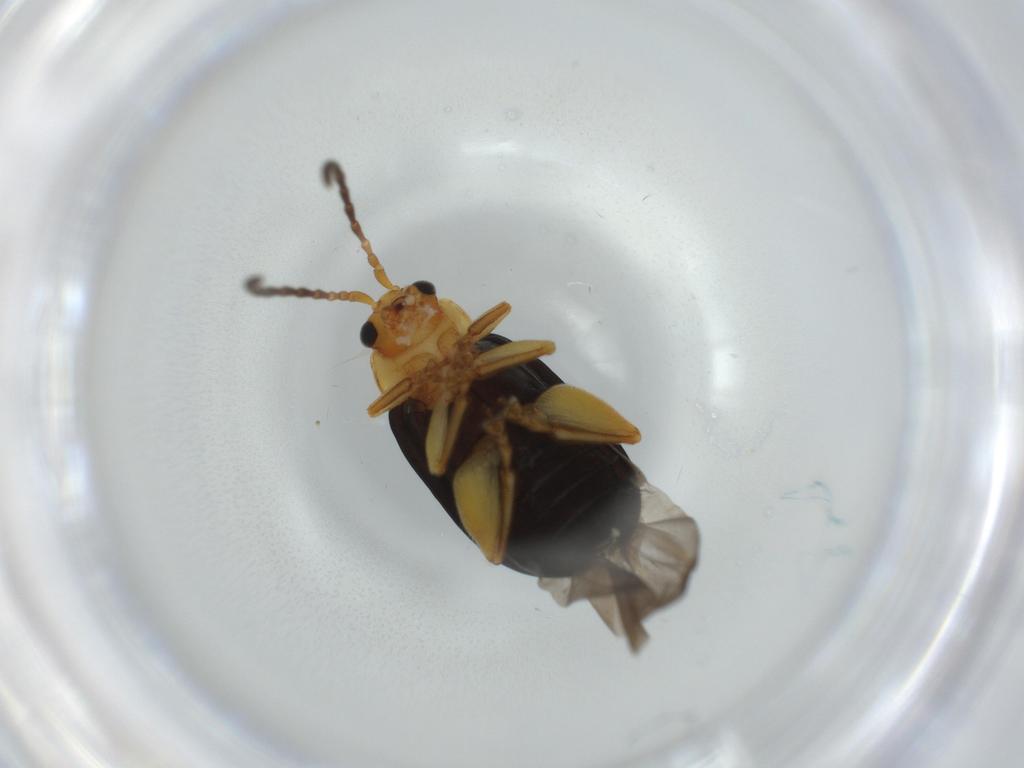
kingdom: Animalia
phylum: Arthropoda
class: Insecta
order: Coleoptera
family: Chrysomelidae
